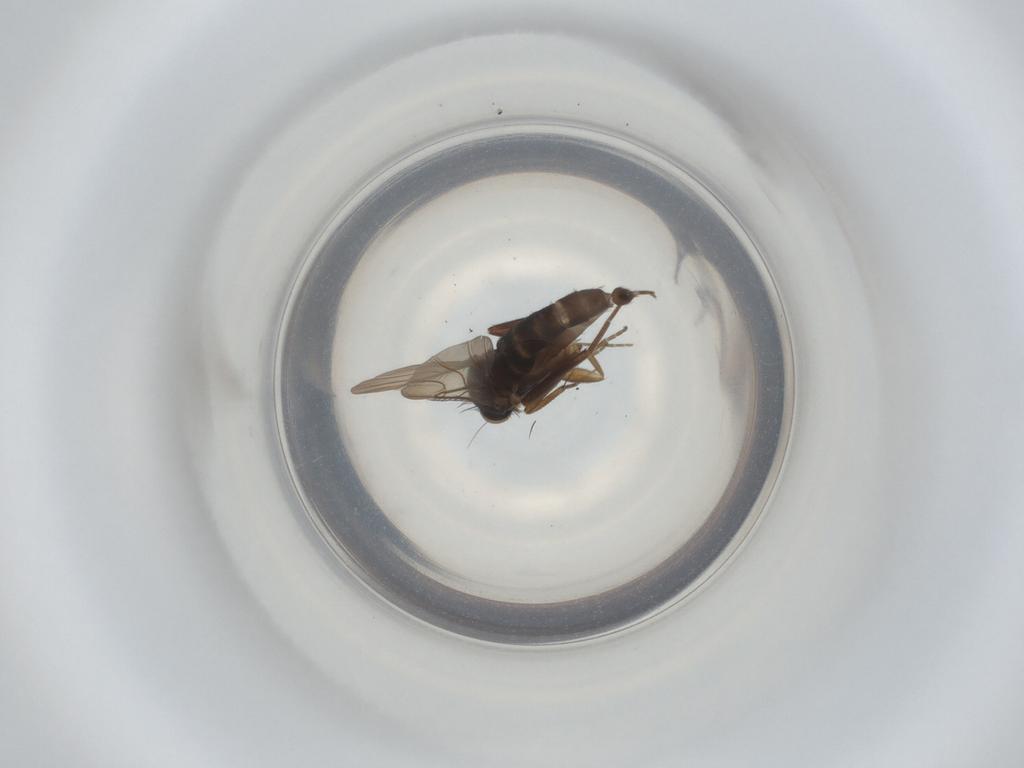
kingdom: Animalia
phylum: Arthropoda
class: Insecta
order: Diptera
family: Phoridae
